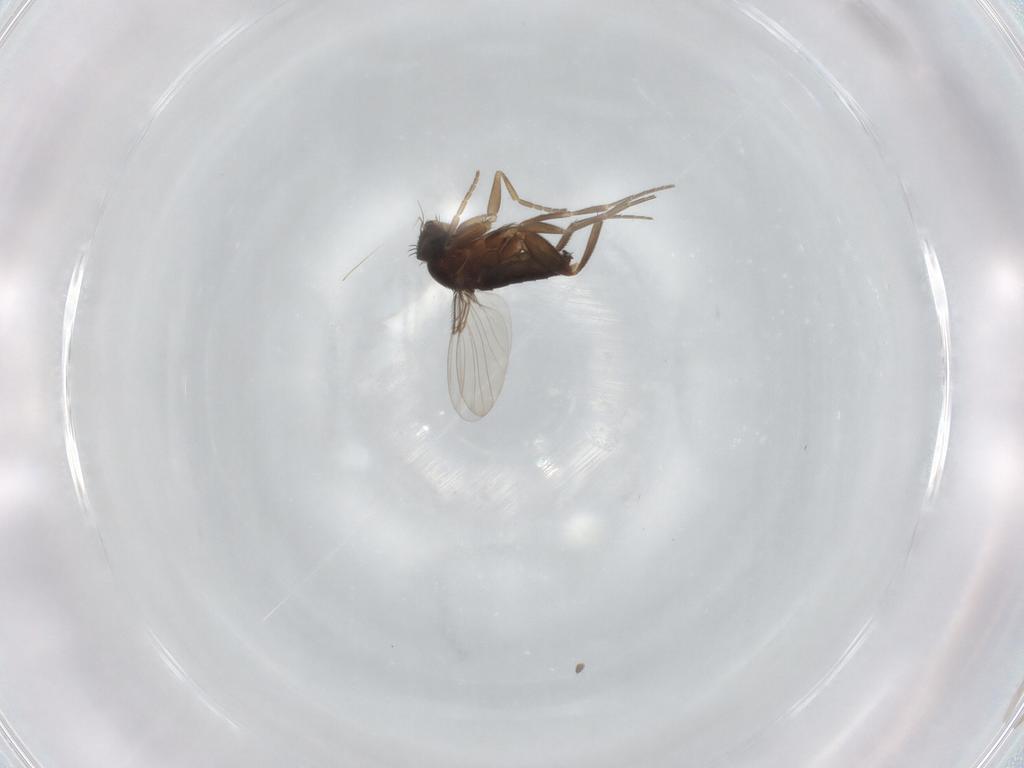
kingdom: Animalia
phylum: Arthropoda
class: Insecta
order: Diptera
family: Phoridae
